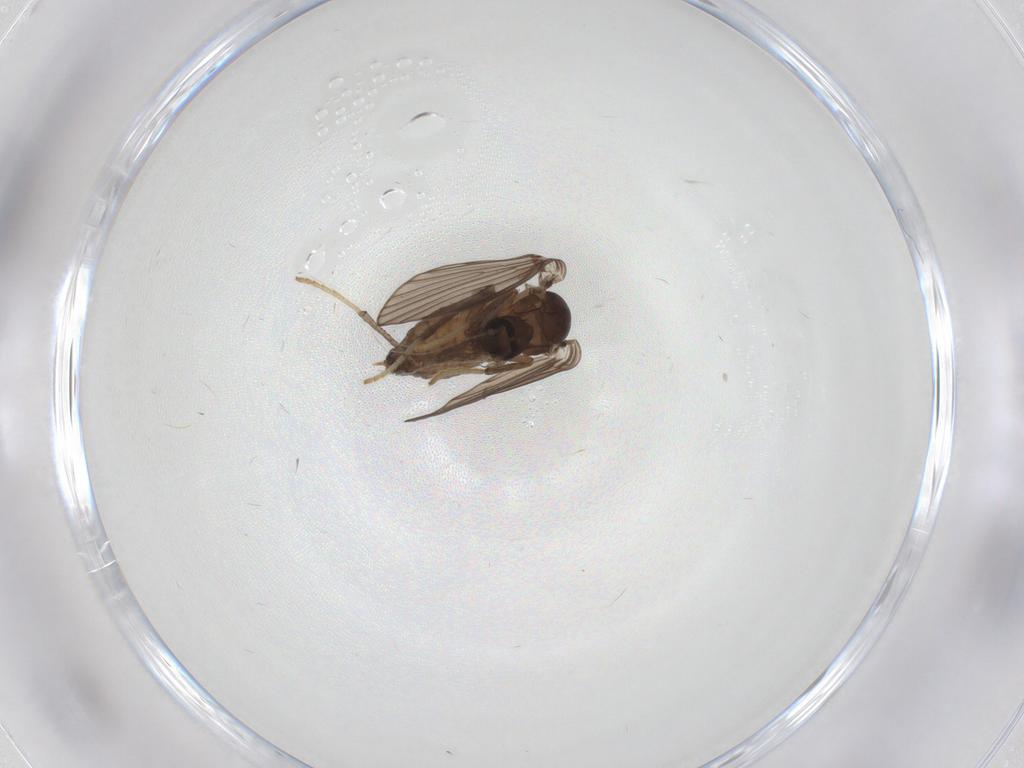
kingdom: Animalia
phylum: Arthropoda
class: Insecta
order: Diptera
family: Psychodidae
